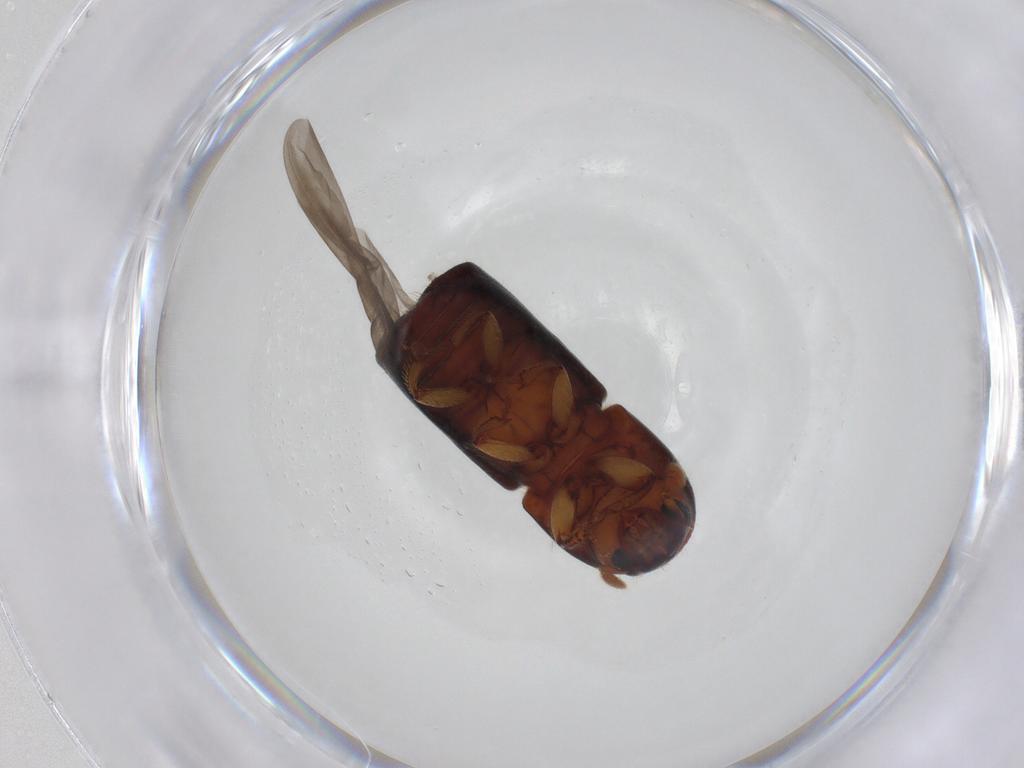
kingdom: Animalia
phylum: Arthropoda
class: Insecta
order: Coleoptera
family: Curculionidae
